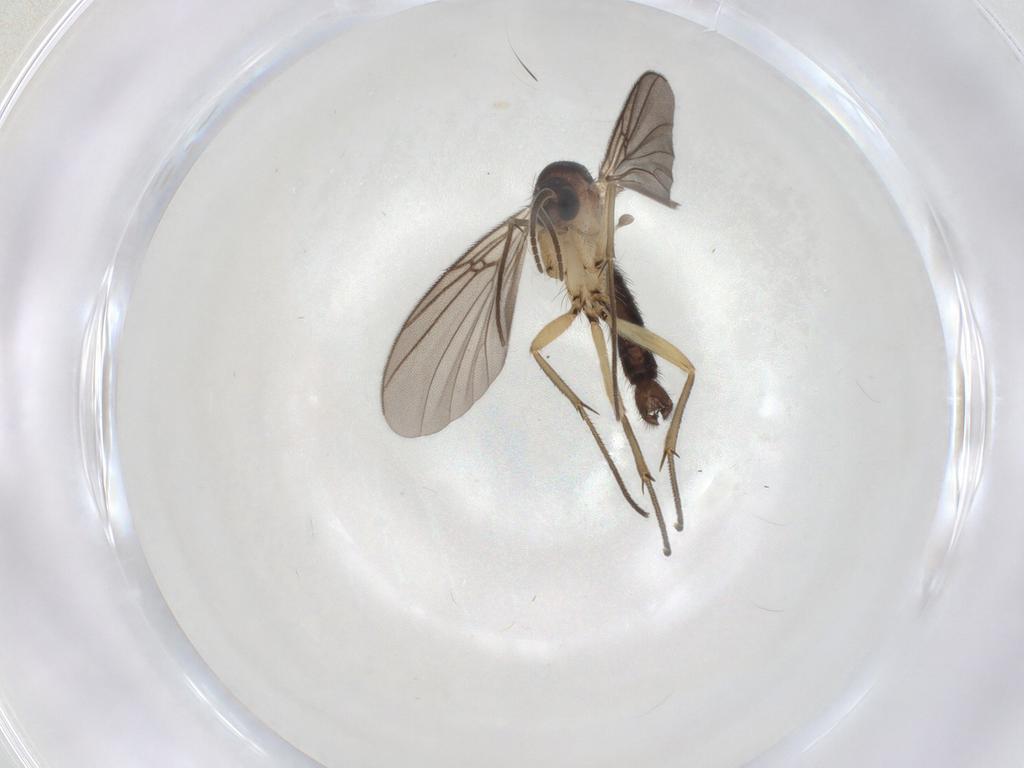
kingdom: Animalia
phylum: Arthropoda
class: Insecta
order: Diptera
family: Mycetophilidae
